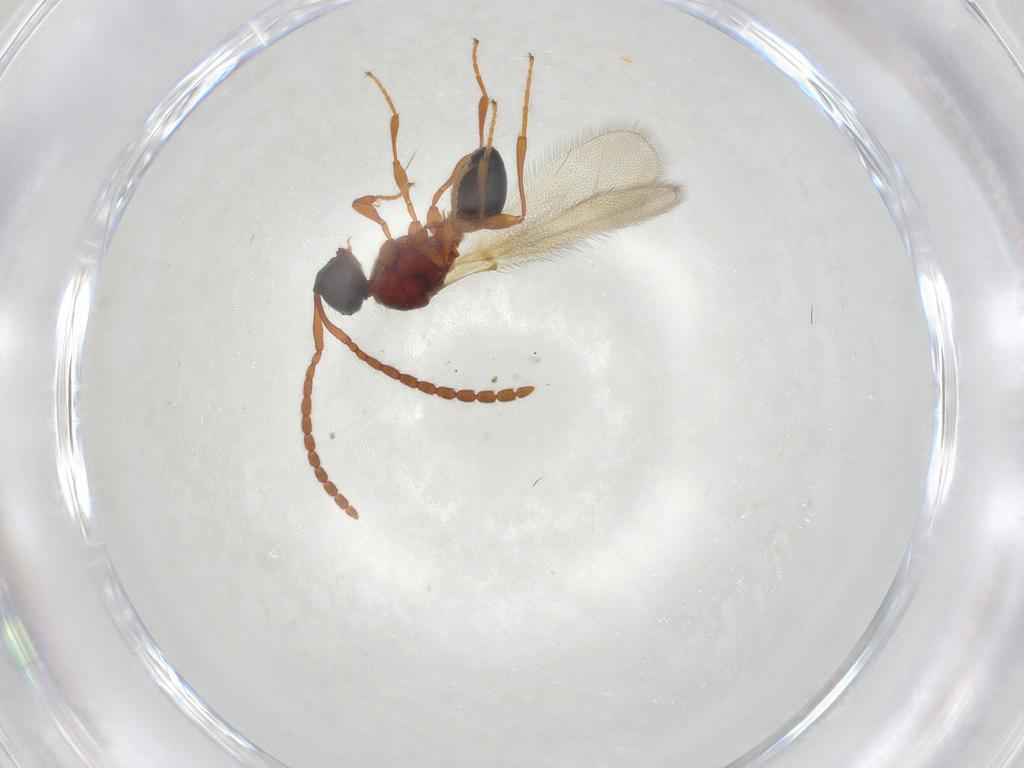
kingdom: Animalia
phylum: Arthropoda
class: Insecta
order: Hymenoptera
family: Diapriidae
